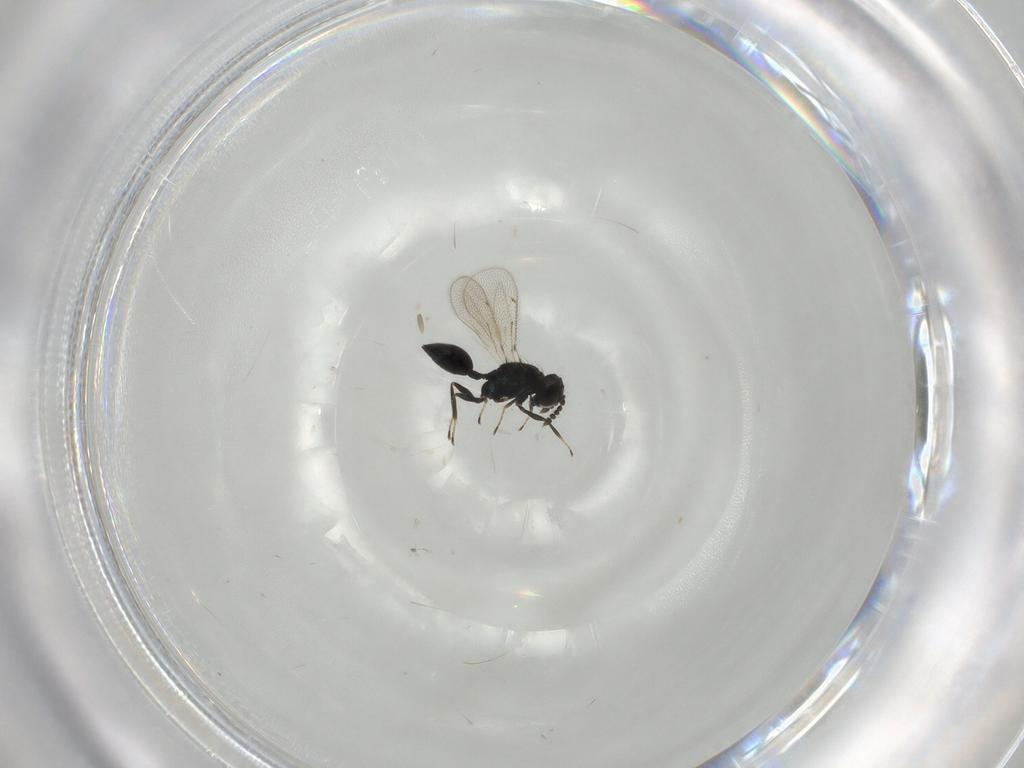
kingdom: Animalia
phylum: Arthropoda
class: Insecta
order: Hymenoptera
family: Eulophidae
